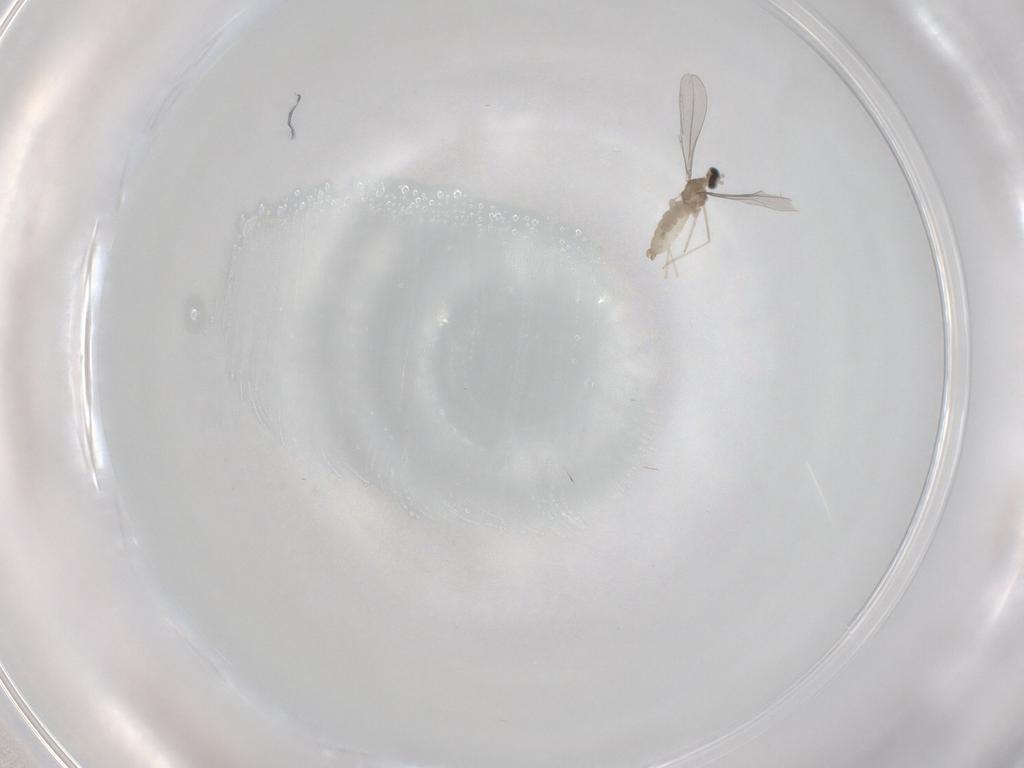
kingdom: Animalia
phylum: Arthropoda
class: Insecta
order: Diptera
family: Cecidomyiidae
